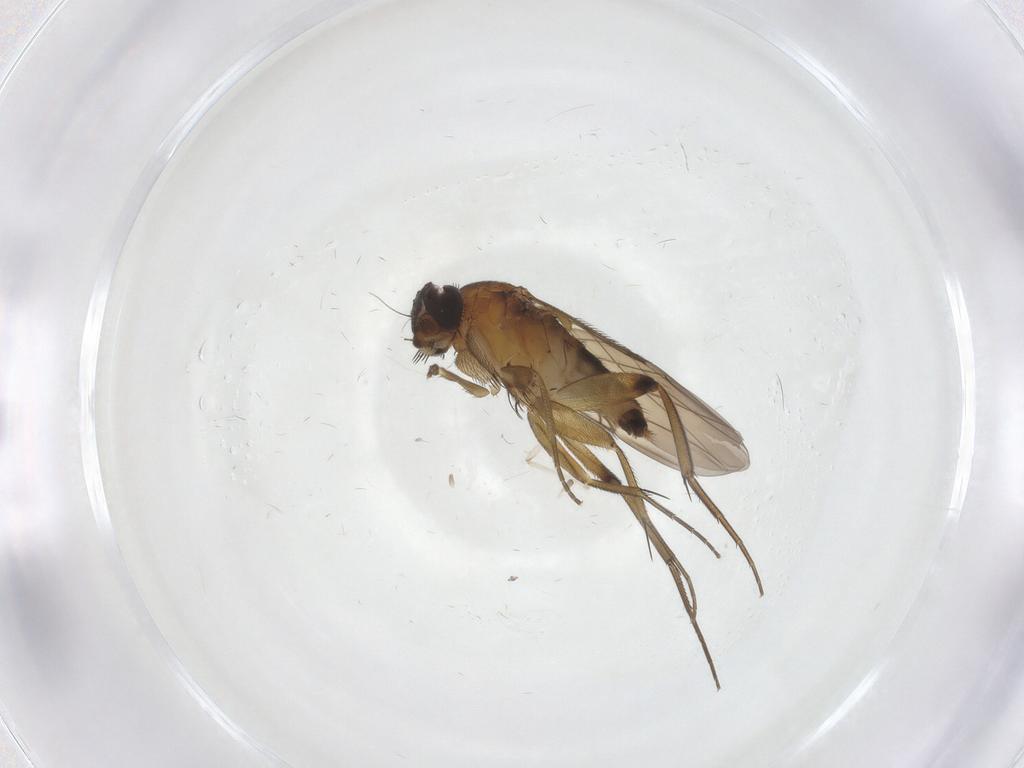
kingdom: Animalia
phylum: Arthropoda
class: Insecta
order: Diptera
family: Phoridae
